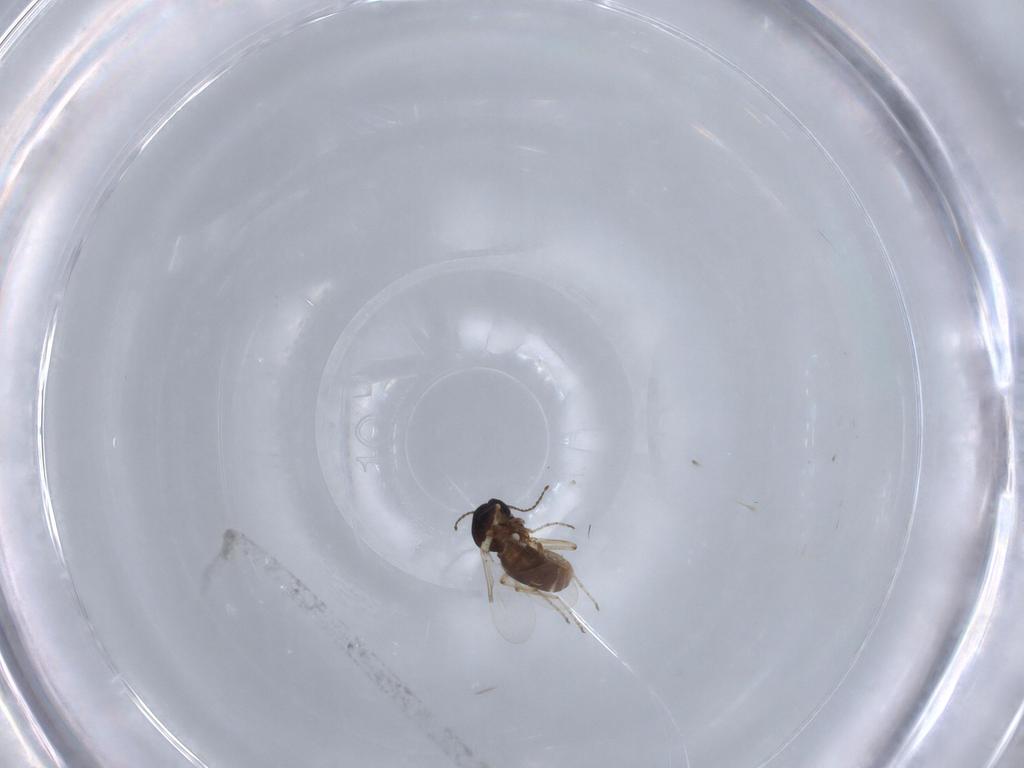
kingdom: Animalia
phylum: Arthropoda
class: Insecta
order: Diptera
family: Ceratopogonidae
